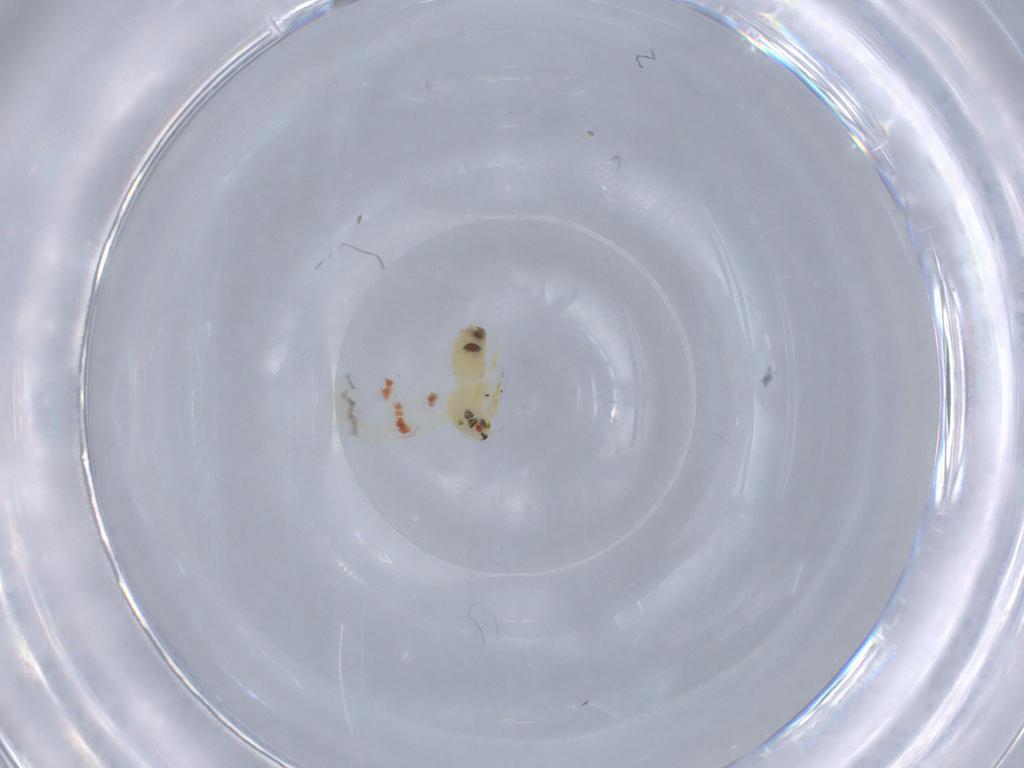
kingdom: Animalia
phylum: Arthropoda
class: Insecta
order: Hemiptera
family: Aleyrodidae
